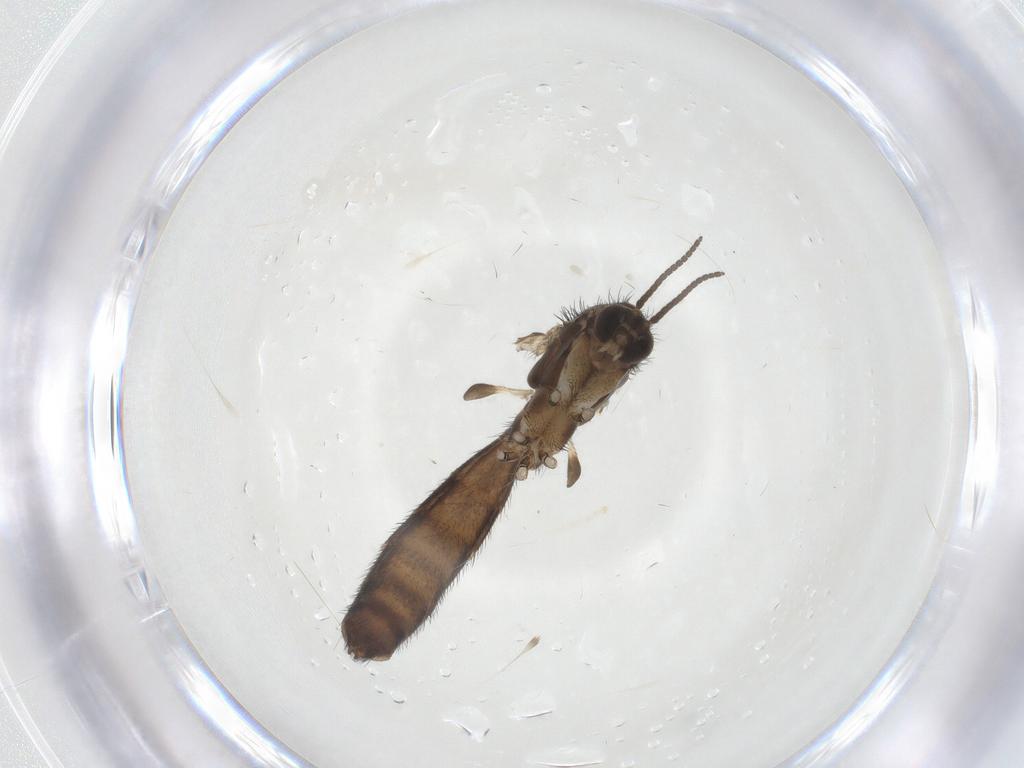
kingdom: Animalia
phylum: Arthropoda
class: Insecta
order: Diptera
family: Keroplatidae
